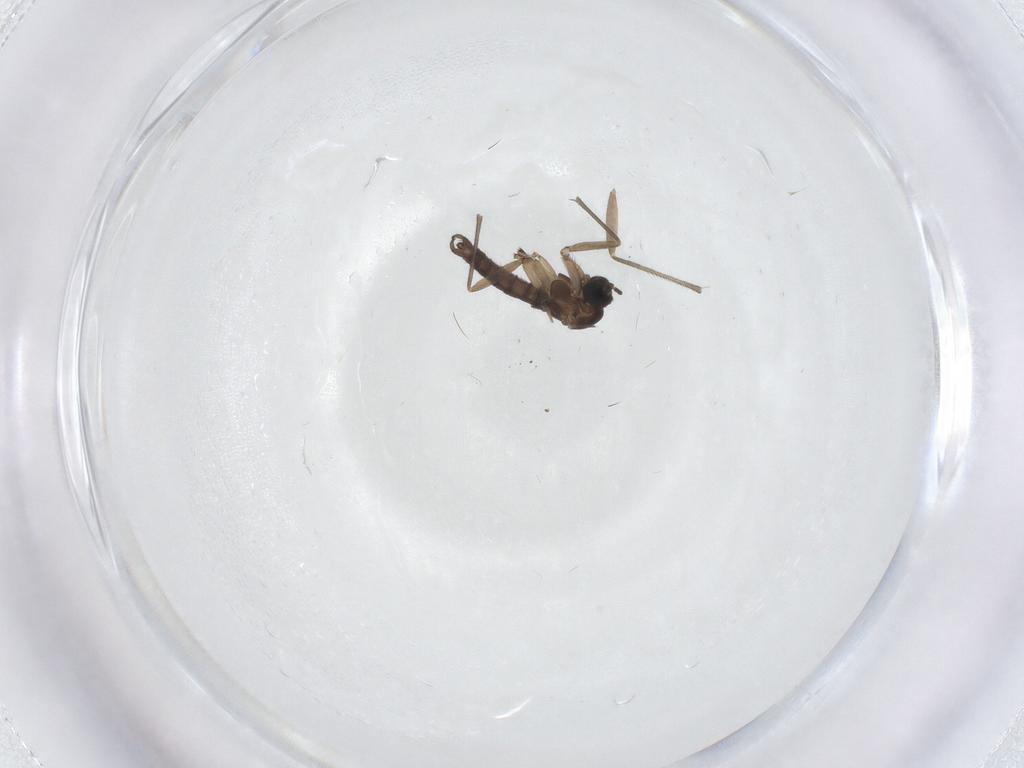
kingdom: Animalia
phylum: Arthropoda
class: Insecta
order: Diptera
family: Sciaridae
